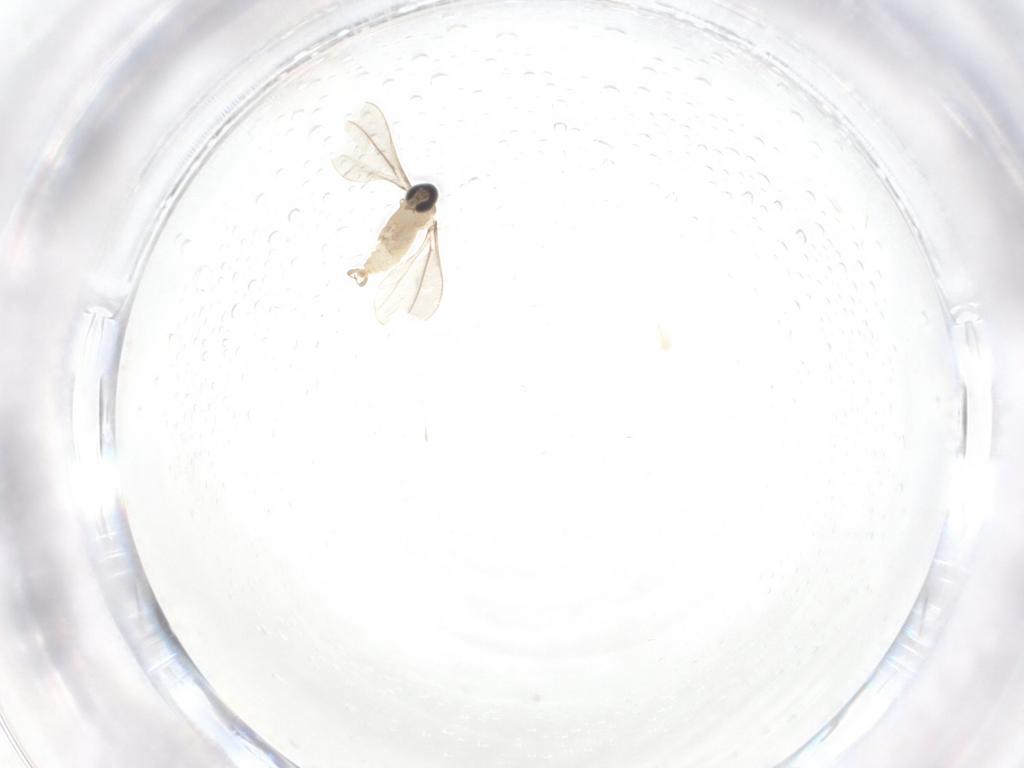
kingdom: Animalia
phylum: Arthropoda
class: Insecta
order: Diptera
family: Cecidomyiidae
